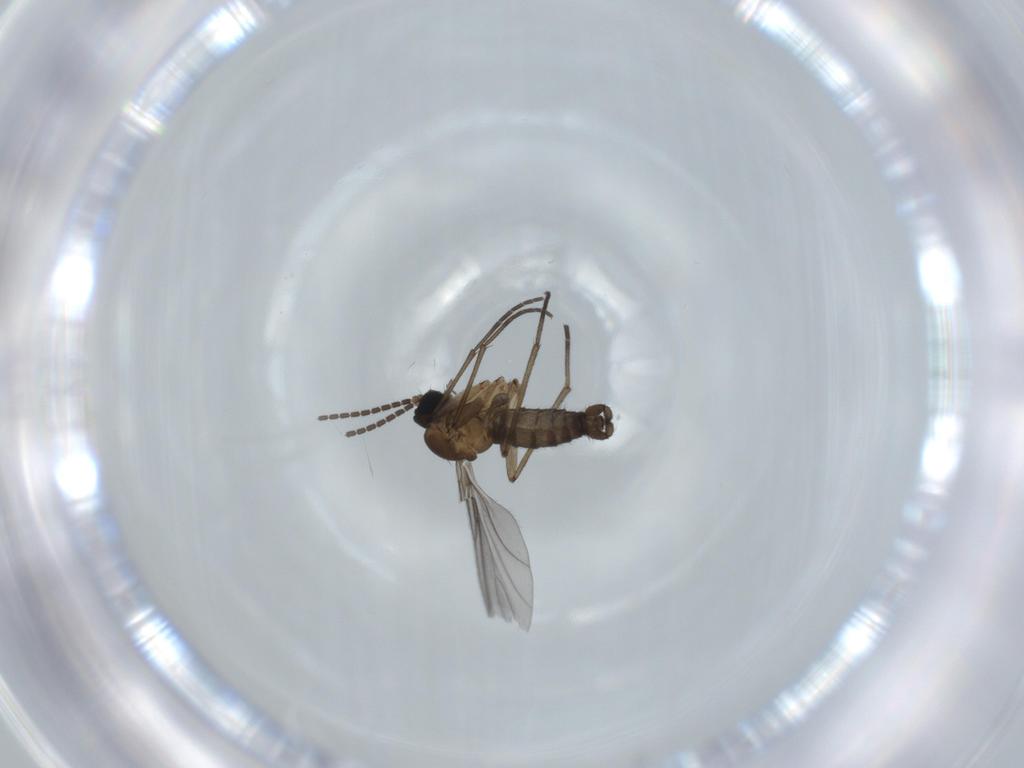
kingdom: Animalia
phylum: Arthropoda
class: Insecta
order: Diptera
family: Sciaridae
